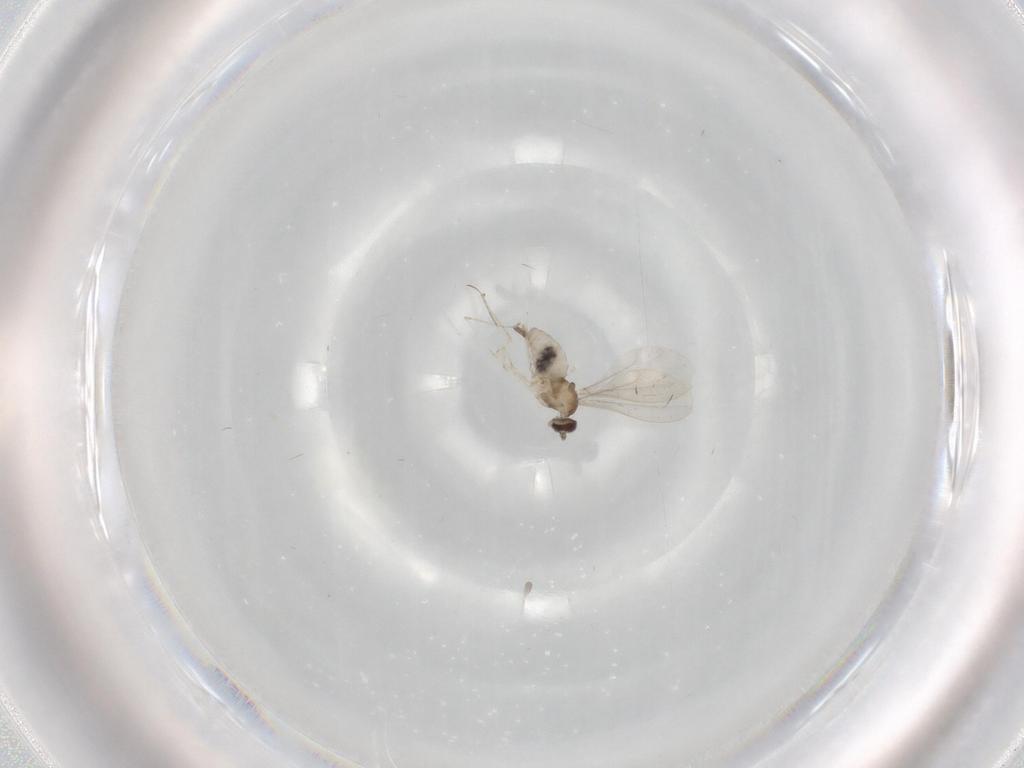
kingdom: Animalia
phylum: Arthropoda
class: Insecta
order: Diptera
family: Cecidomyiidae
